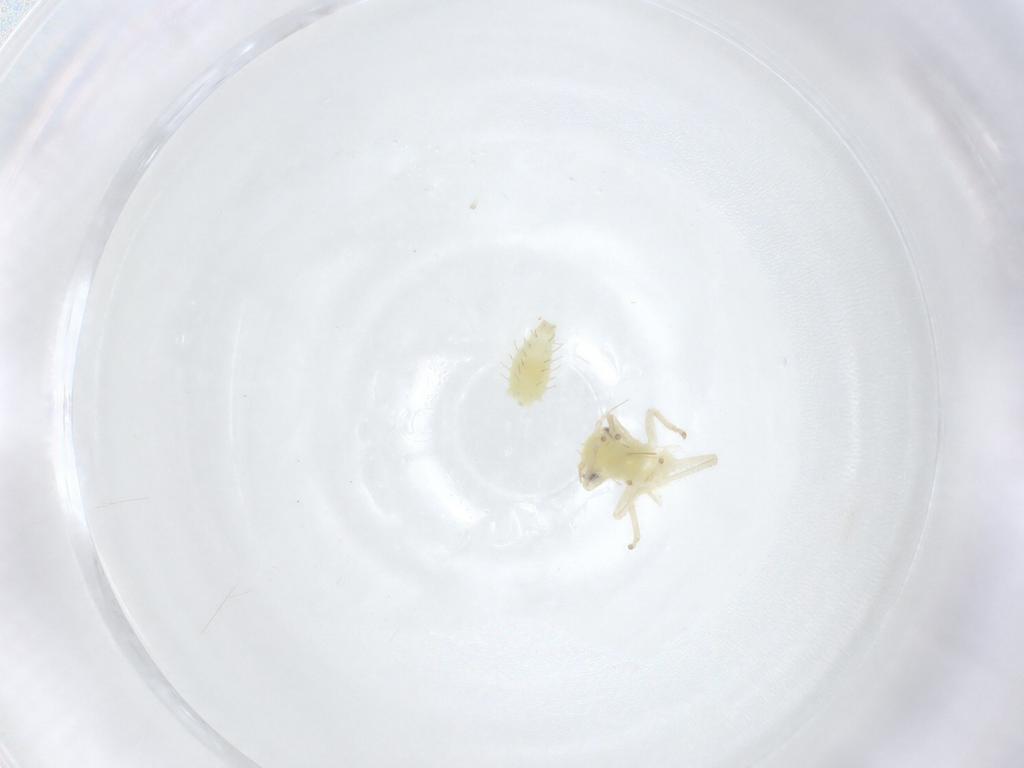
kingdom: Animalia
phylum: Arthropoda
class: Insecta
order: Hemiptera
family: Cicadellidae
